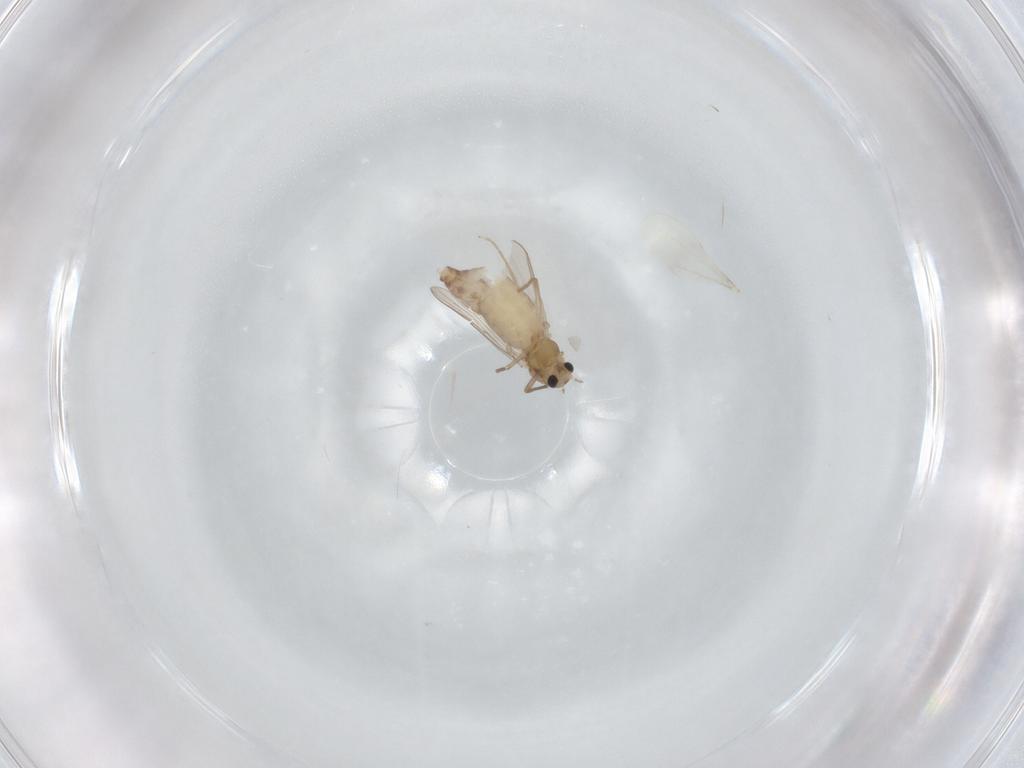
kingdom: Animalia
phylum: Arthropoda
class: Insecta
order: Diptera
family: Chironomidae
